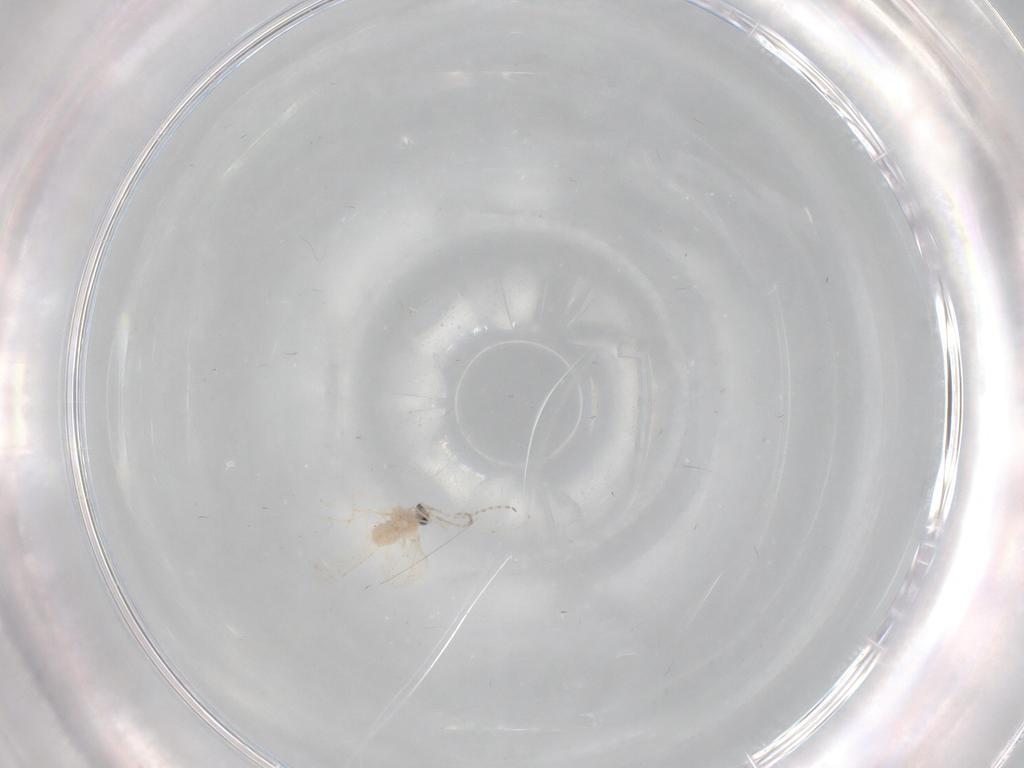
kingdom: Animalia
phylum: Arthropoda
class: Insecta
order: Diptera
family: Cecidomyiidae
